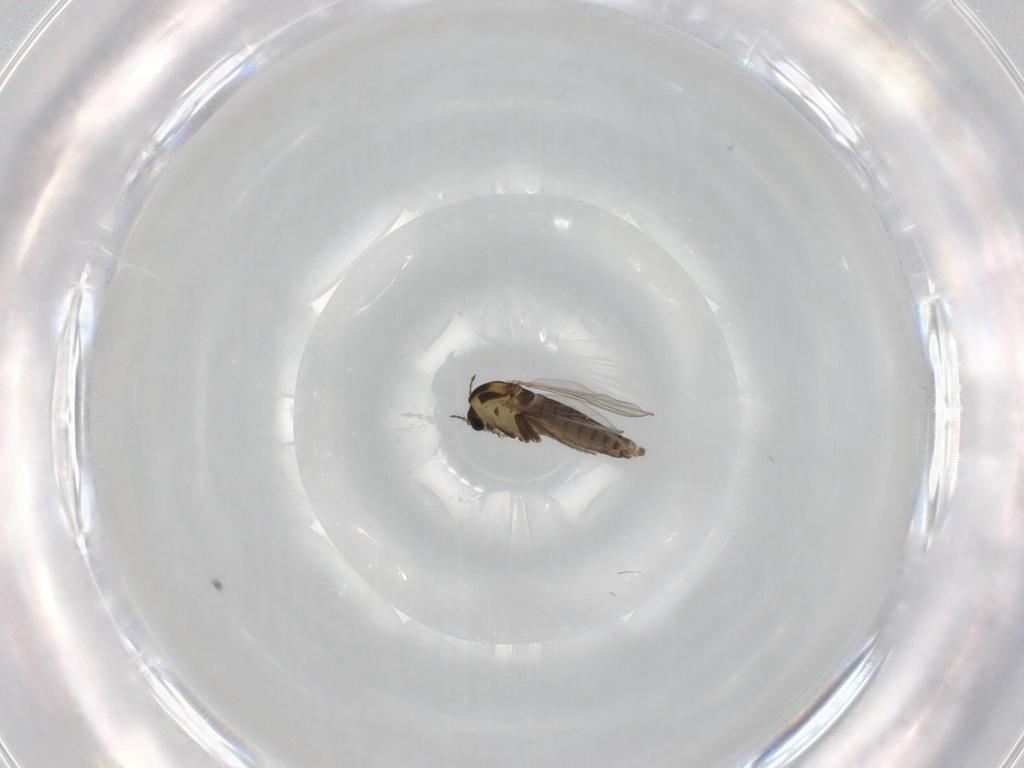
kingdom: Animalia
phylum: Arthropoda
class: Insecta
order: Diptera
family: Chironomidae
